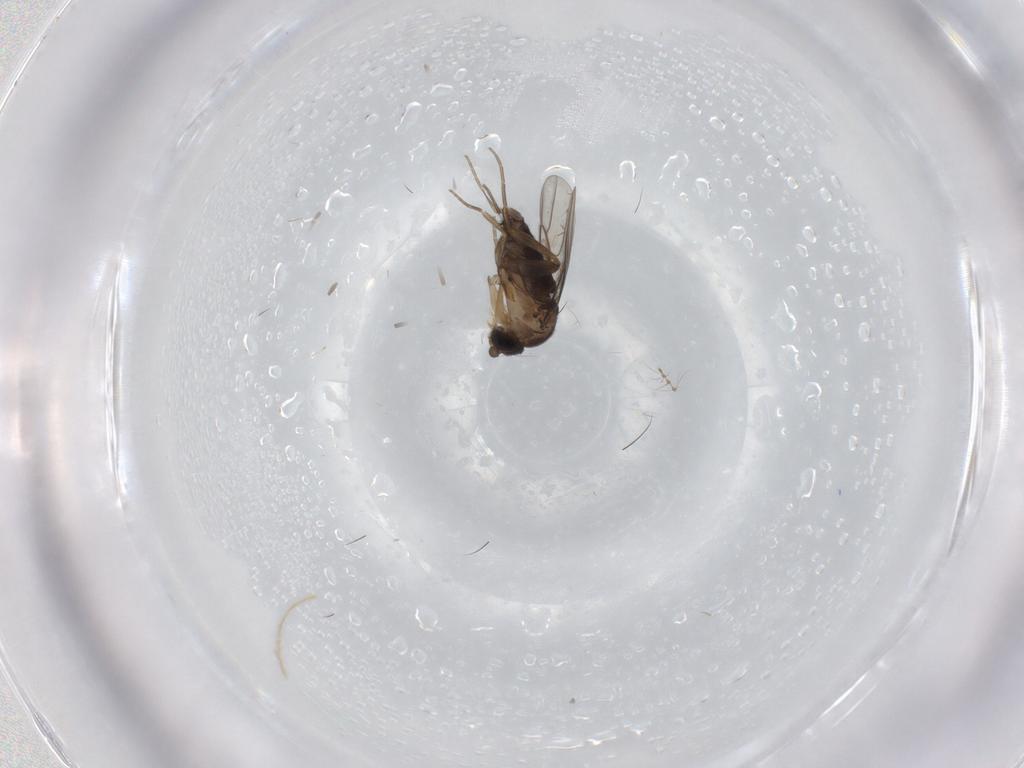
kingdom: Animalia
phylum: Arthropoda
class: Insecta
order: Diptera
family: Phoridae
